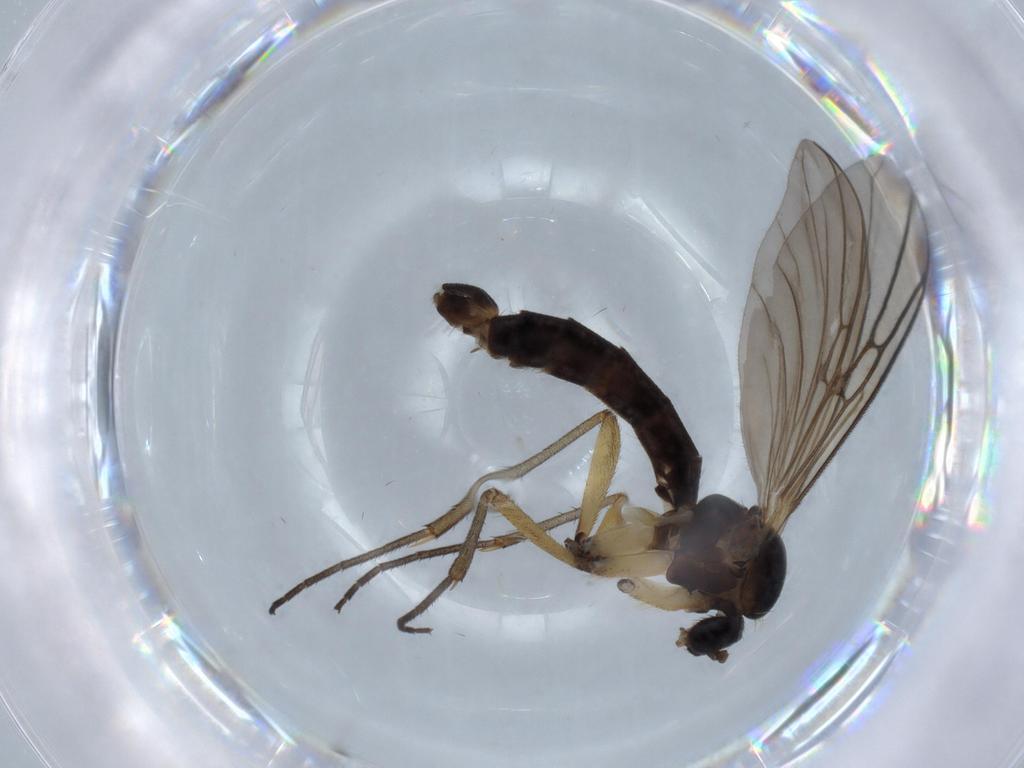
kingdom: Animalia
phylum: Arthropoda
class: Insecta
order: Diptera
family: Empididae
